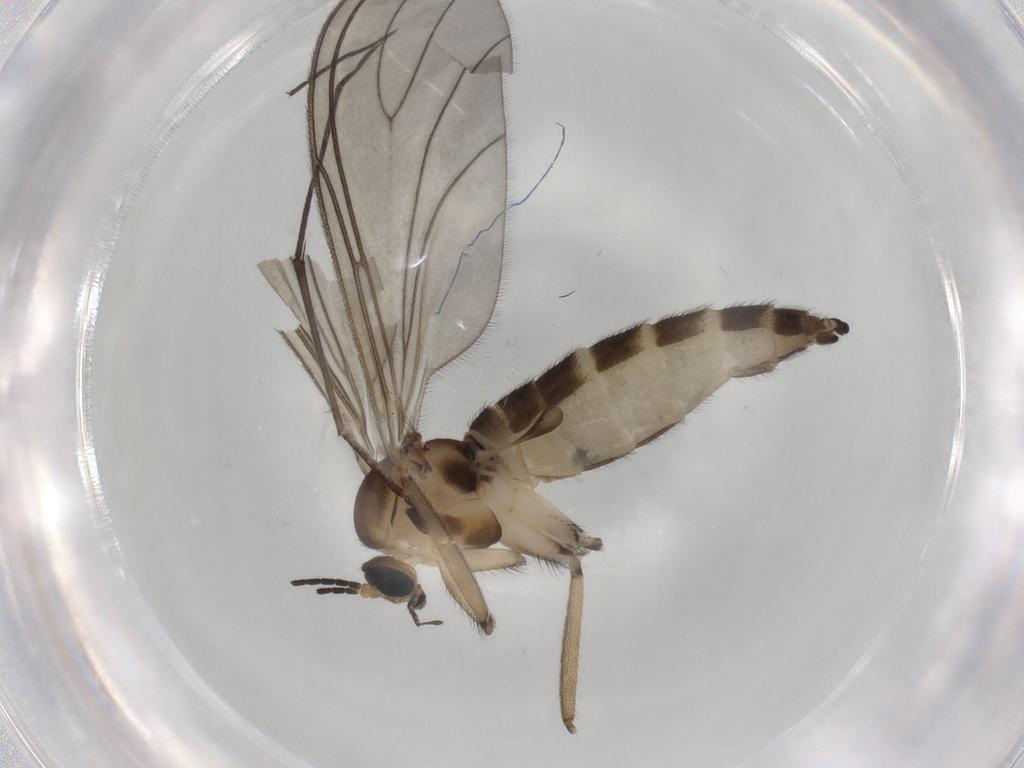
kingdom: Animalia
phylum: Arthropoda
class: Insecta
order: Diptera
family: Sciaridae
